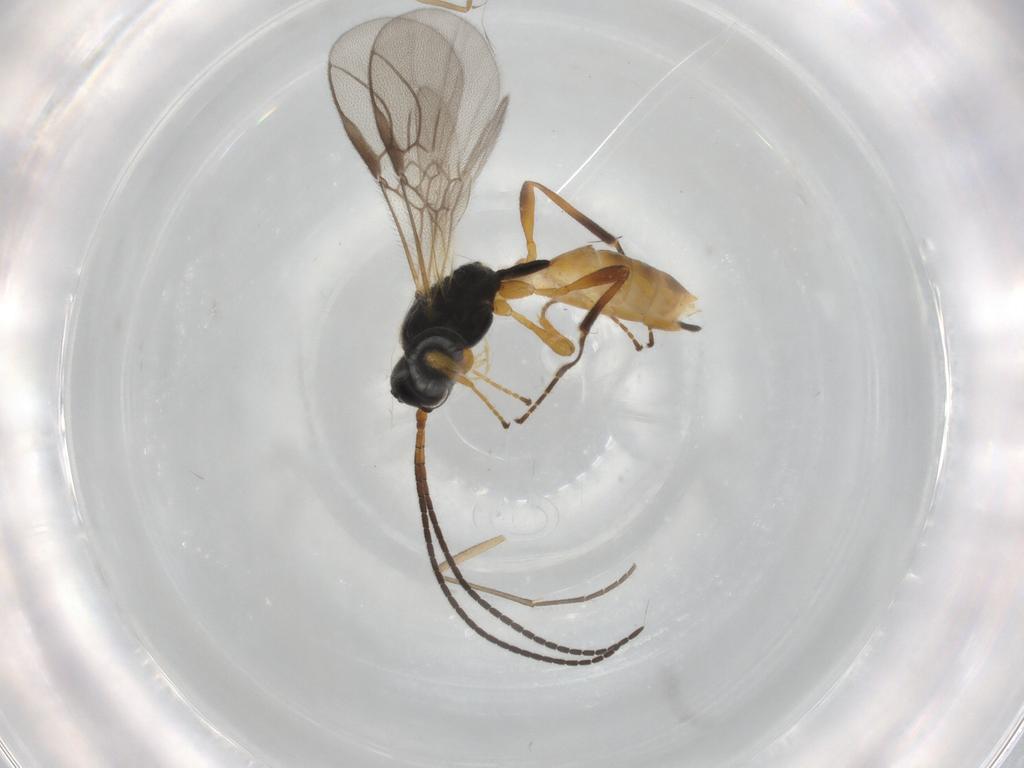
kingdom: Animalia
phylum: Arthropoda
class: Insecta
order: Hymenoptera
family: Braconidae
